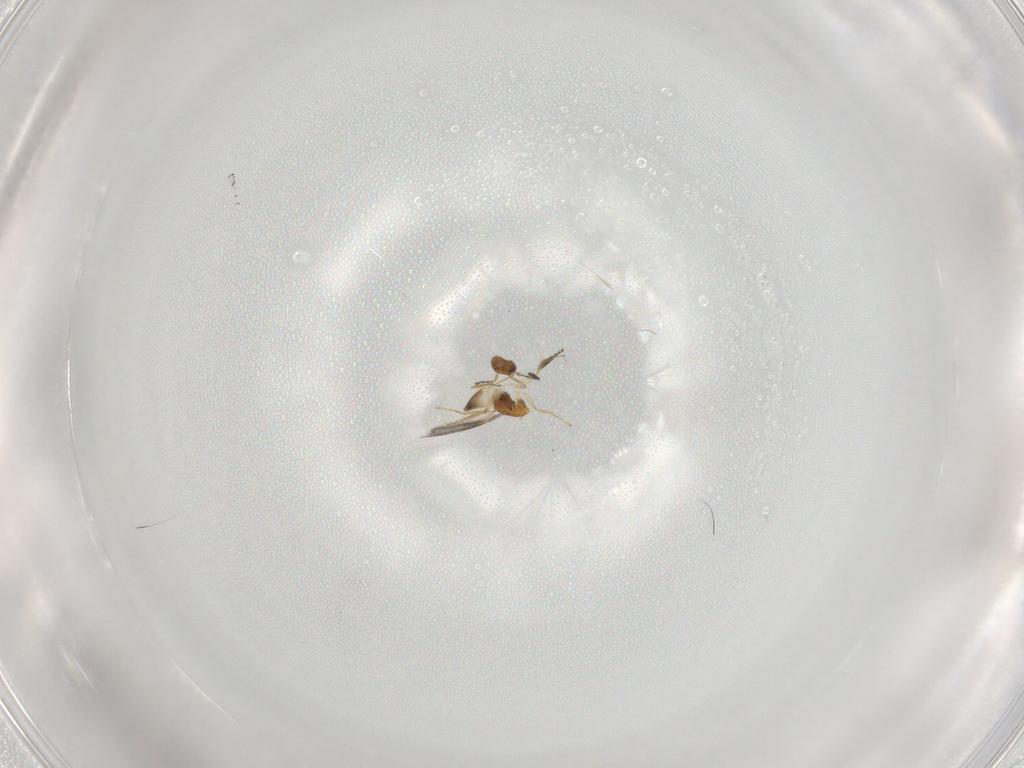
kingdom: Animalia
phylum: Arthropoda
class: Insecta
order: Hymenoptera
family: Mymaridae
